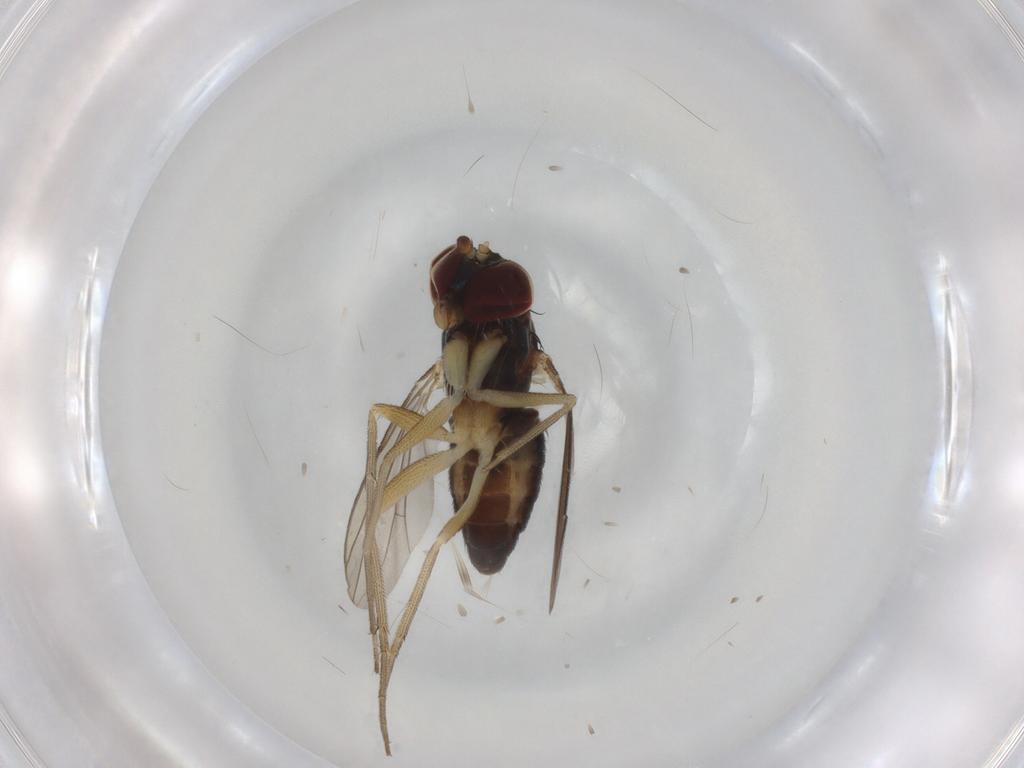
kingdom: Animalia
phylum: Arthropoda
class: Insecta
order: Diptera
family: Dolichopodidae
